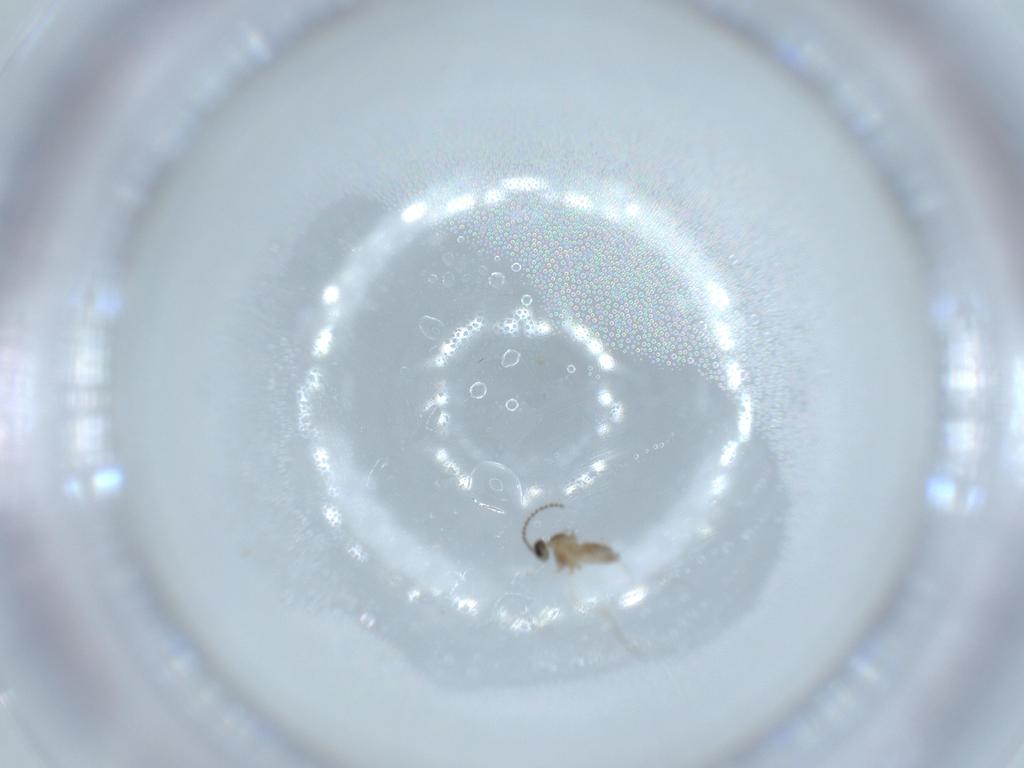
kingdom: Animalia
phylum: Arthropoda
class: Insecta
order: Diptera
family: Cecidomyiidae
